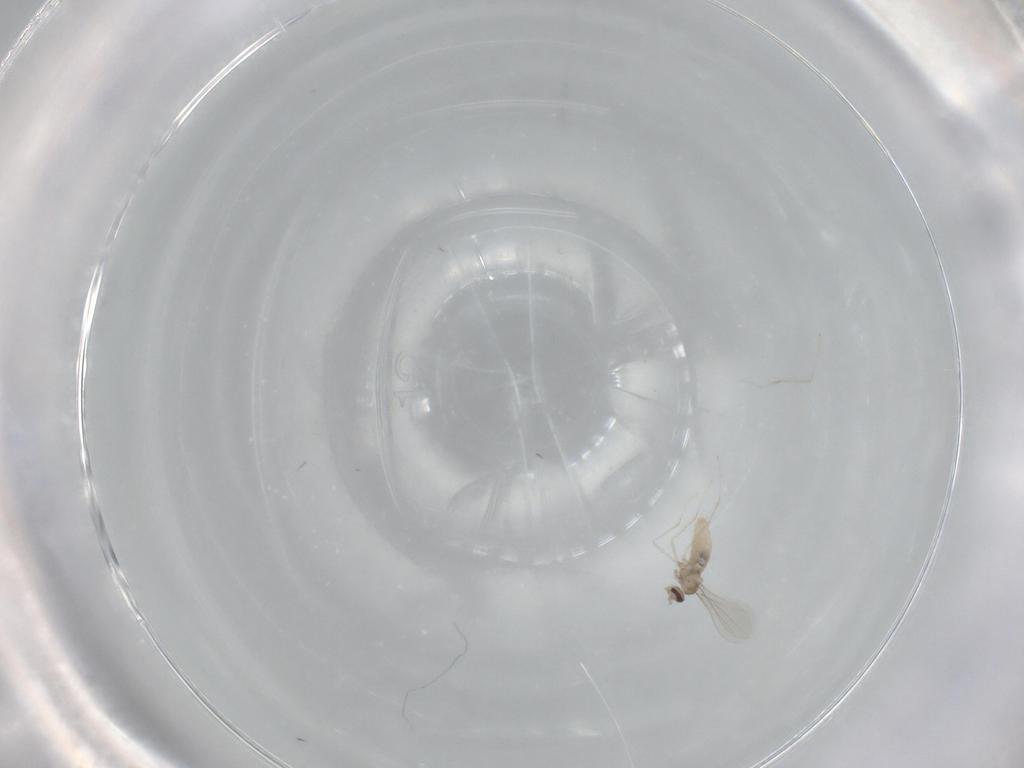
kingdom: Animalia
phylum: Arthropoda
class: Insecta
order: Diptera
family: Cecidomyiidae
